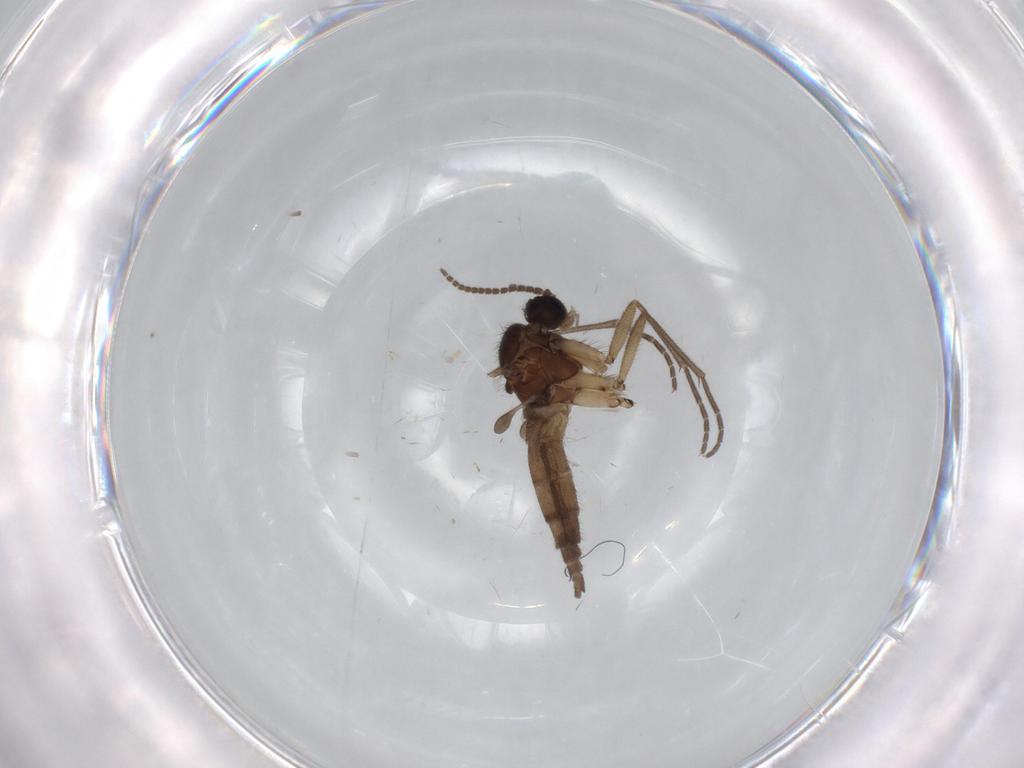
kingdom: Animalia
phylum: Arthropoda
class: Insecta
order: Diptera
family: Sciaridae
